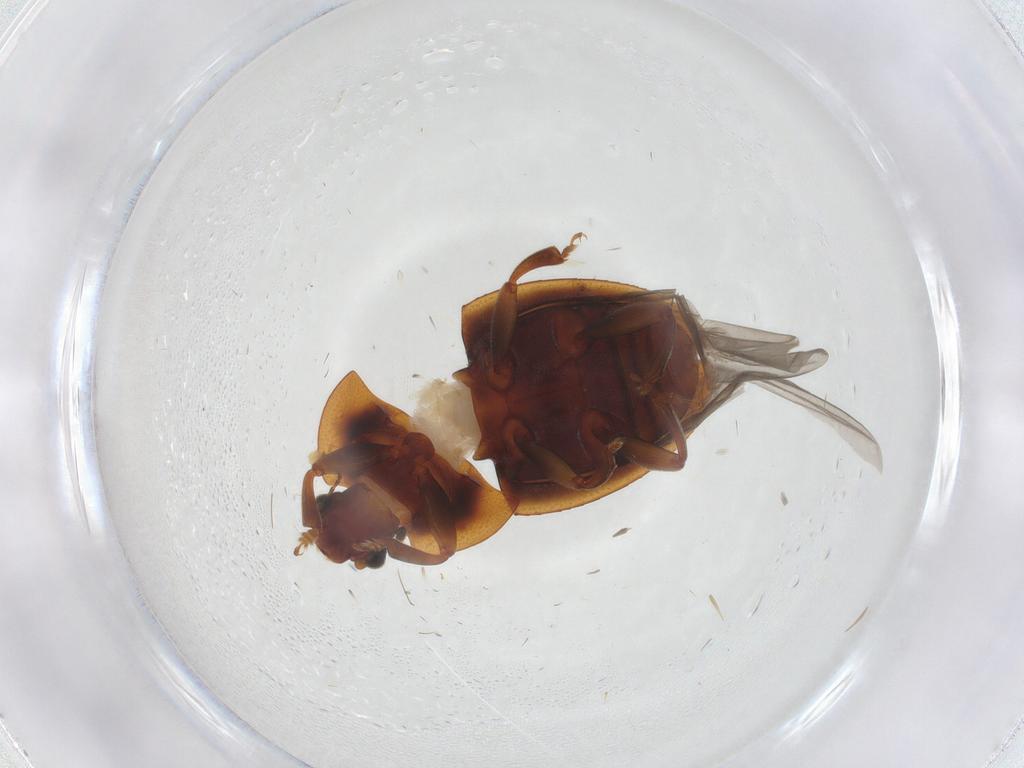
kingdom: Animalia
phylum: Arthropoda
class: Insecta
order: Coleoptera
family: Nitidulidae
